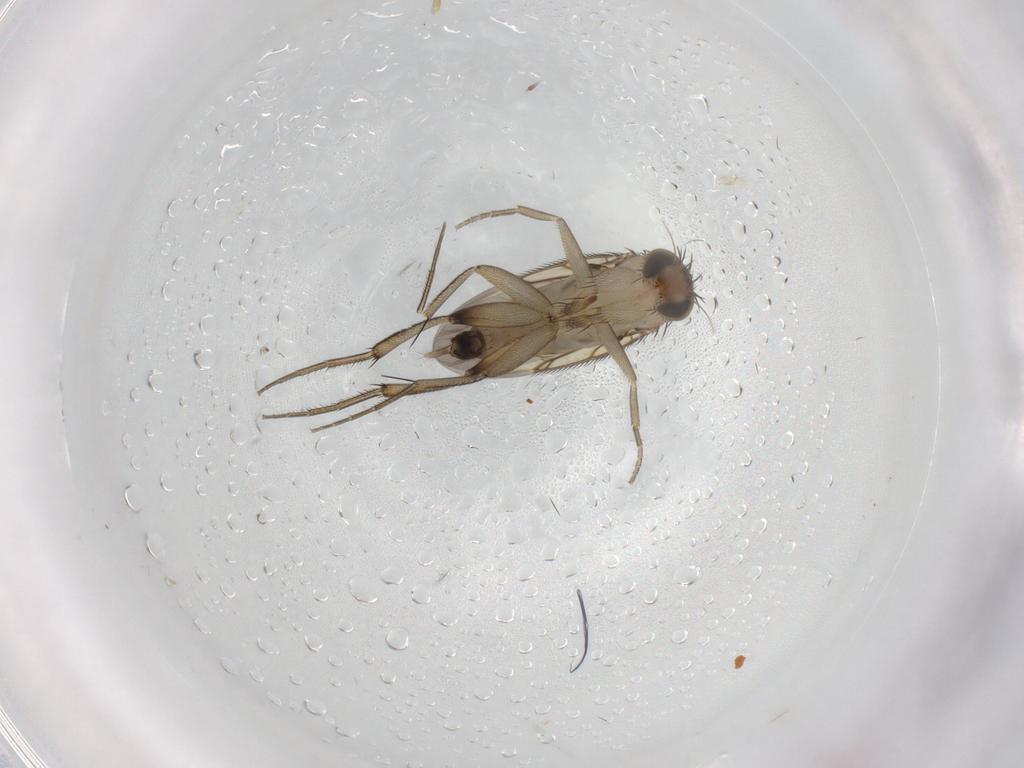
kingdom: Animalia
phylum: Arthropoda
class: Insecta
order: Diptera
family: Phoridae
